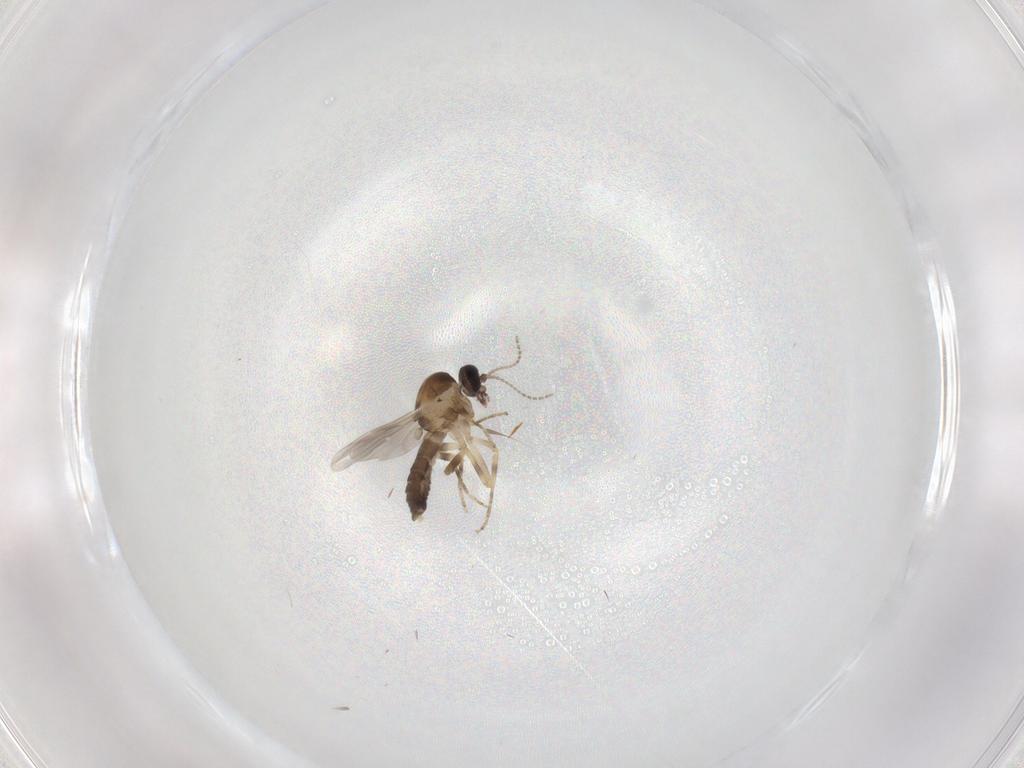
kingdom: Animalia
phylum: Arthropoda
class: Insecta
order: Diptera
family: Ceratopogonidae
